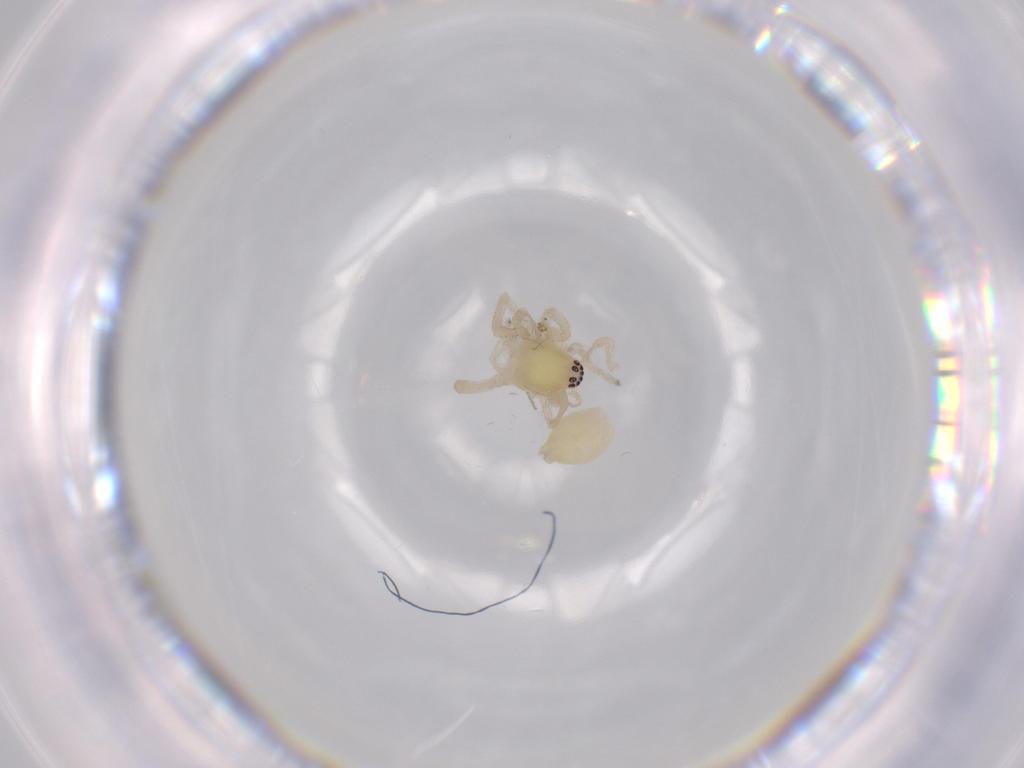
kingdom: Animalia
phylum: Arthropoda
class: Arachnida
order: Araneae
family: Anyphaenidae
